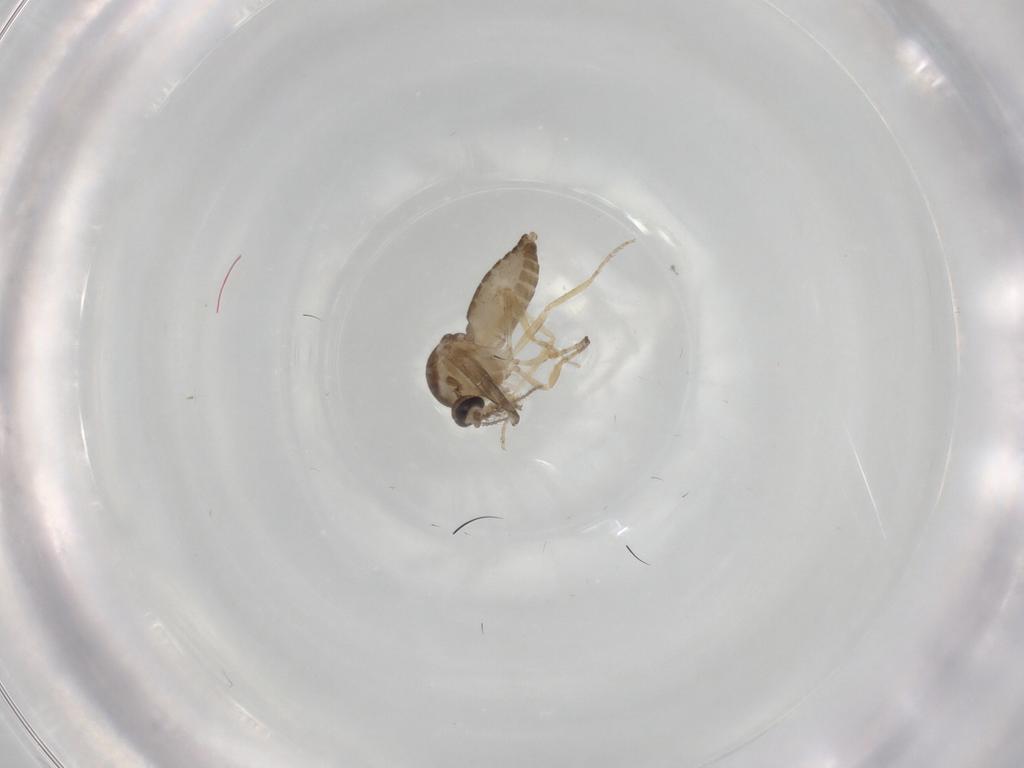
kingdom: Animalia
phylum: Arthropoda
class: Insecta
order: Diptera
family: Ceratopogonidae
